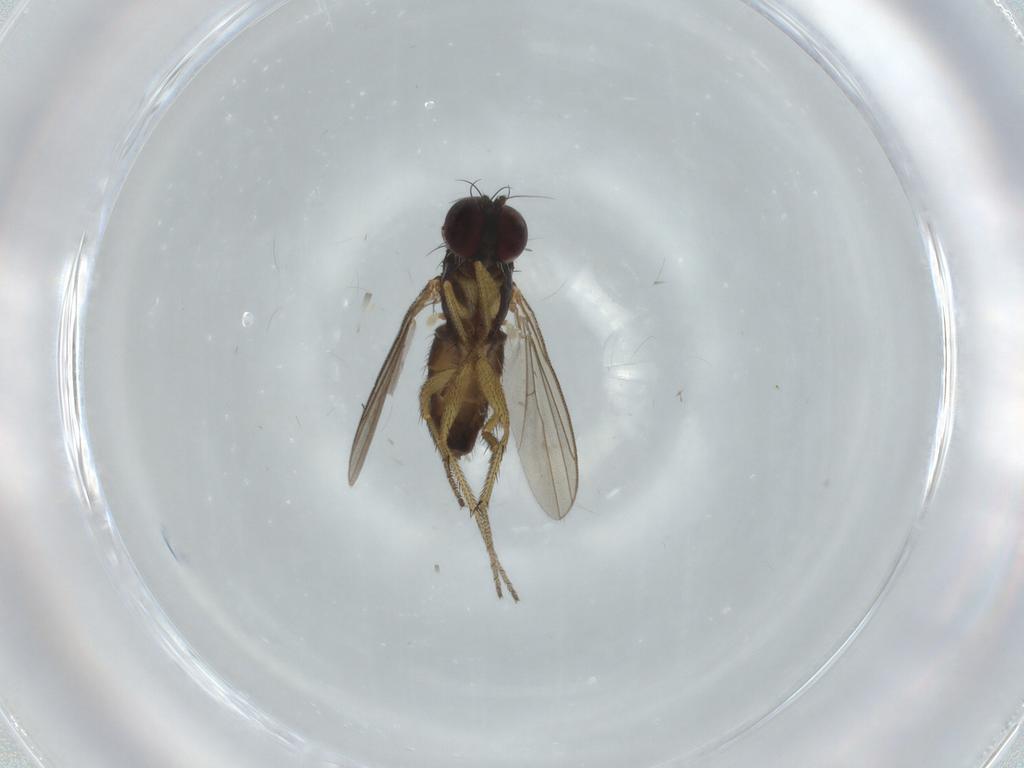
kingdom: Animalia
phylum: Arthropoda
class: Insecta
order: Diptera
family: Dolichopodidae
